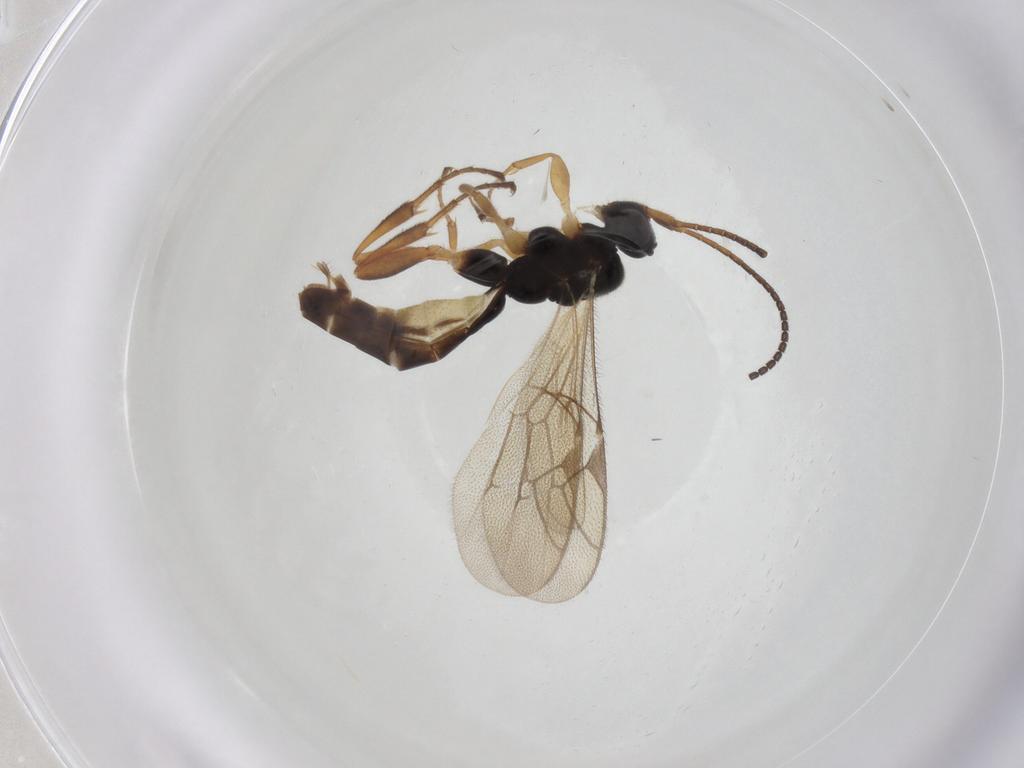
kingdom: Animalia
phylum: Arthropoda
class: Insecta
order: Hymenoptera
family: Ichneumonidae
